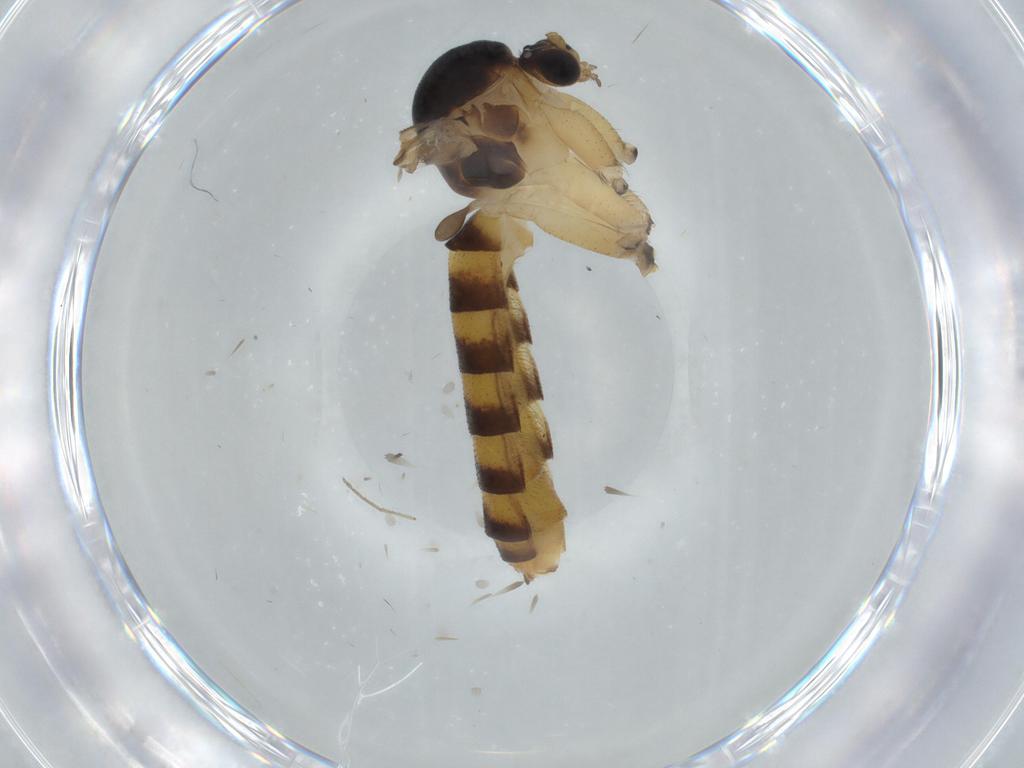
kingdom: Animalia
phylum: Arthropoda
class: Insecta
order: Diptera
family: Mycetophilidae
